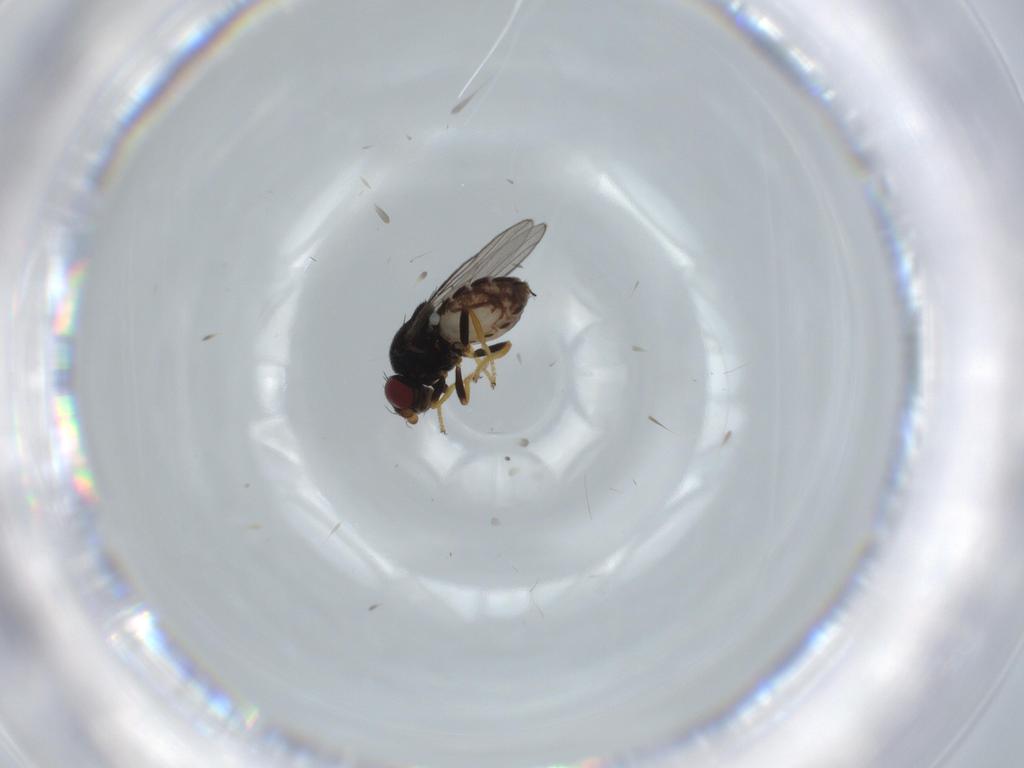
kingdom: Animalia
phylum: Arthropoda
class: Insecta
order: Diptera
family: Chloropidae
